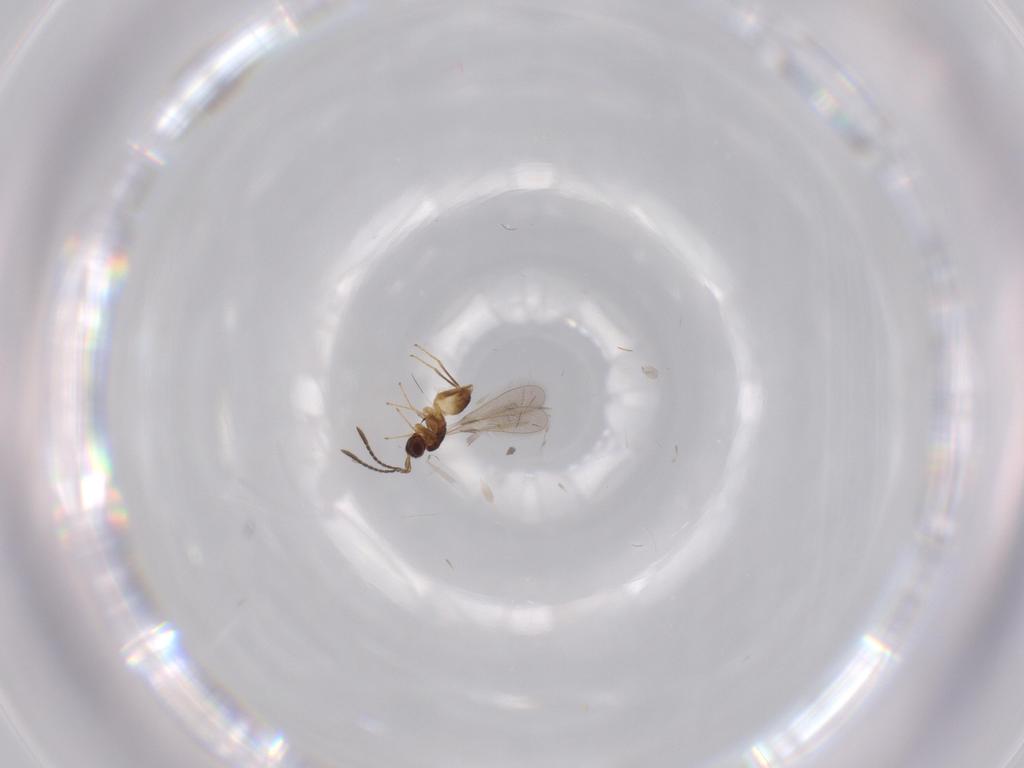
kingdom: Animalia
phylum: Arthropoda
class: Insecta
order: Hymenoptera
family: Mymaridae
